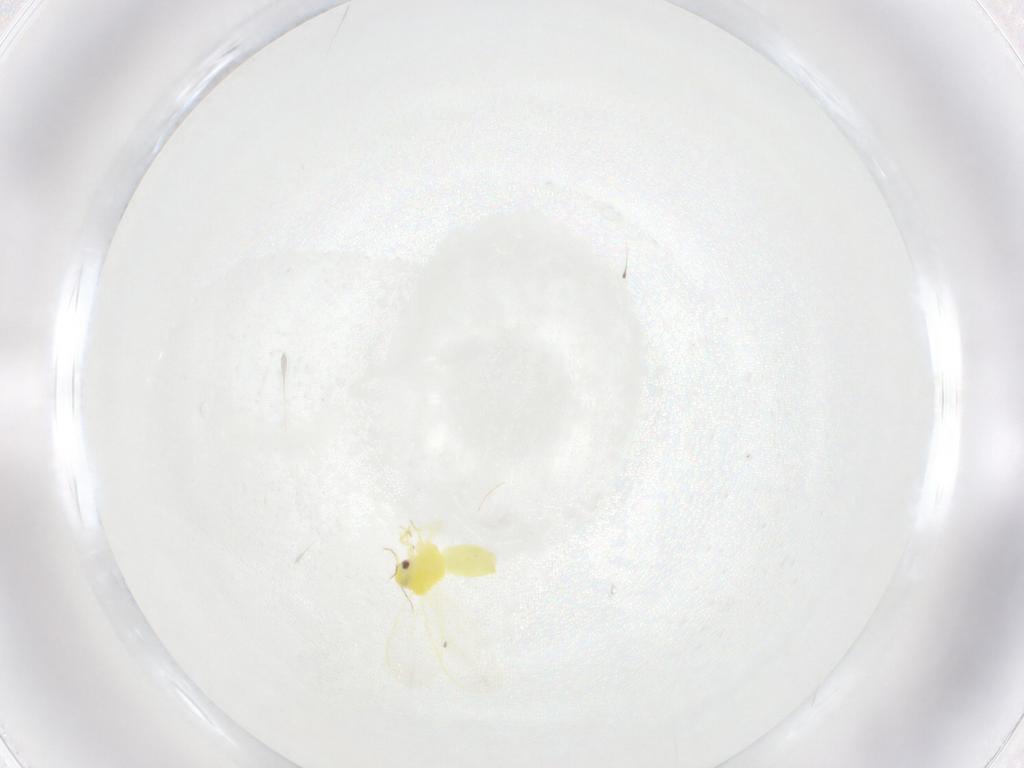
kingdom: Animalia
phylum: Arthropoda
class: Insecta
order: Hemiptera
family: Aleyrodidae
